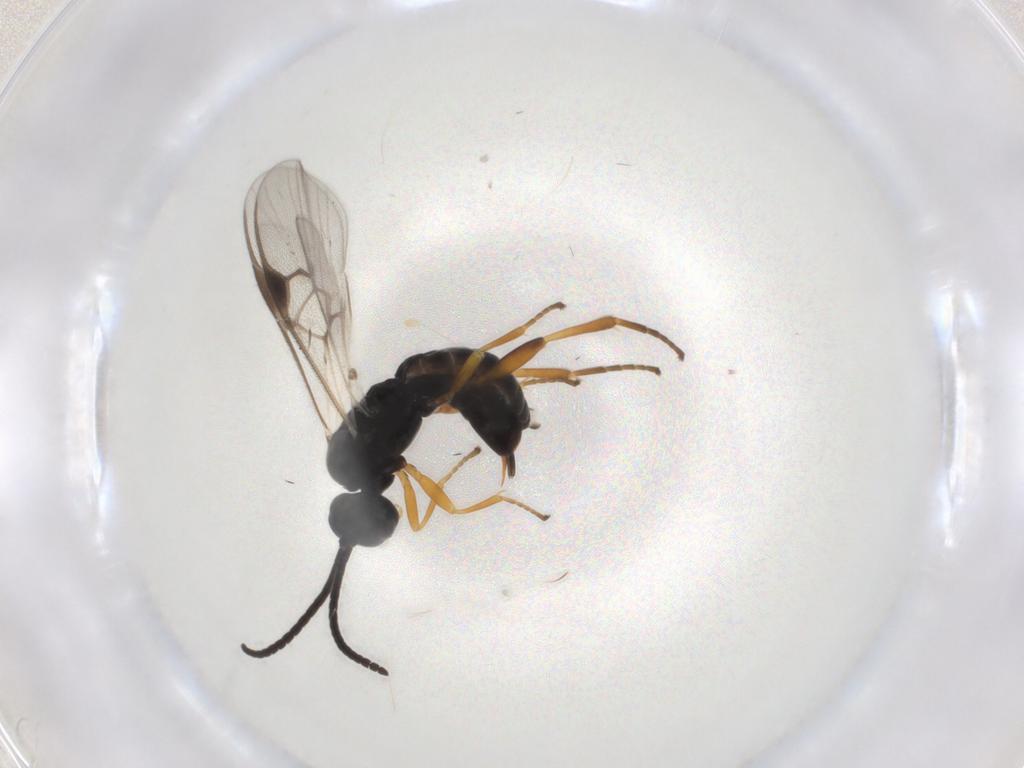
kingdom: Animalia
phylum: Arthropoda
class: Insecta
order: Hymenoptera
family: Braconidae
